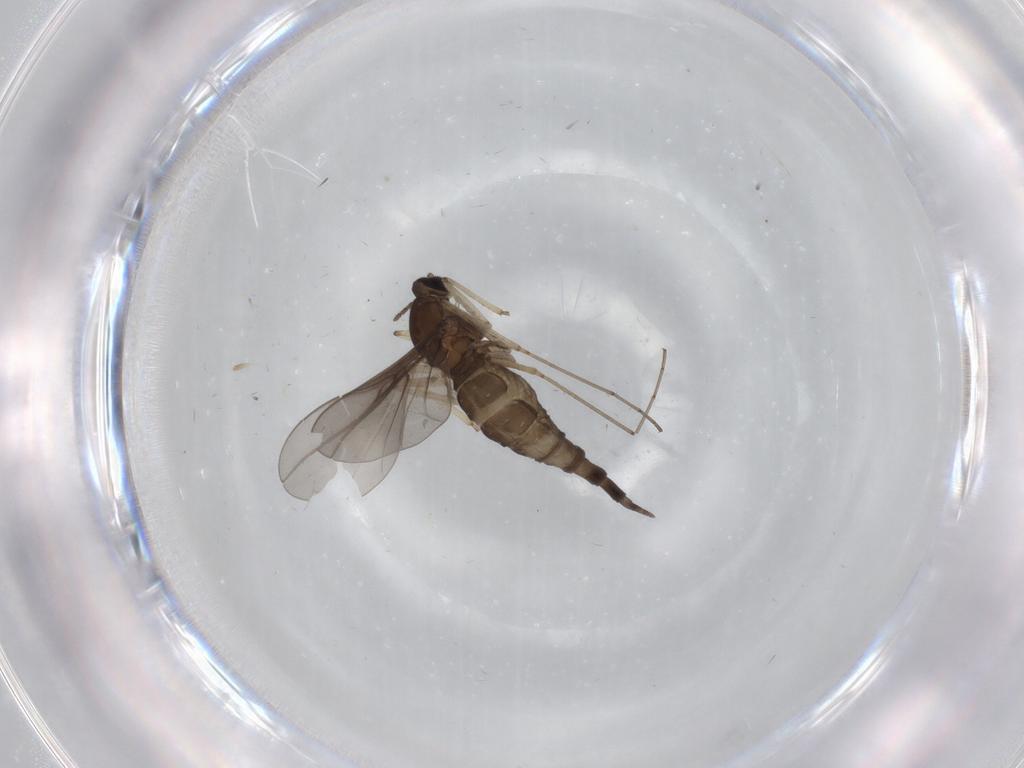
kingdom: Animalia
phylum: Arthropoda
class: Insecta
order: Diptera
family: Cecidomyiidae
